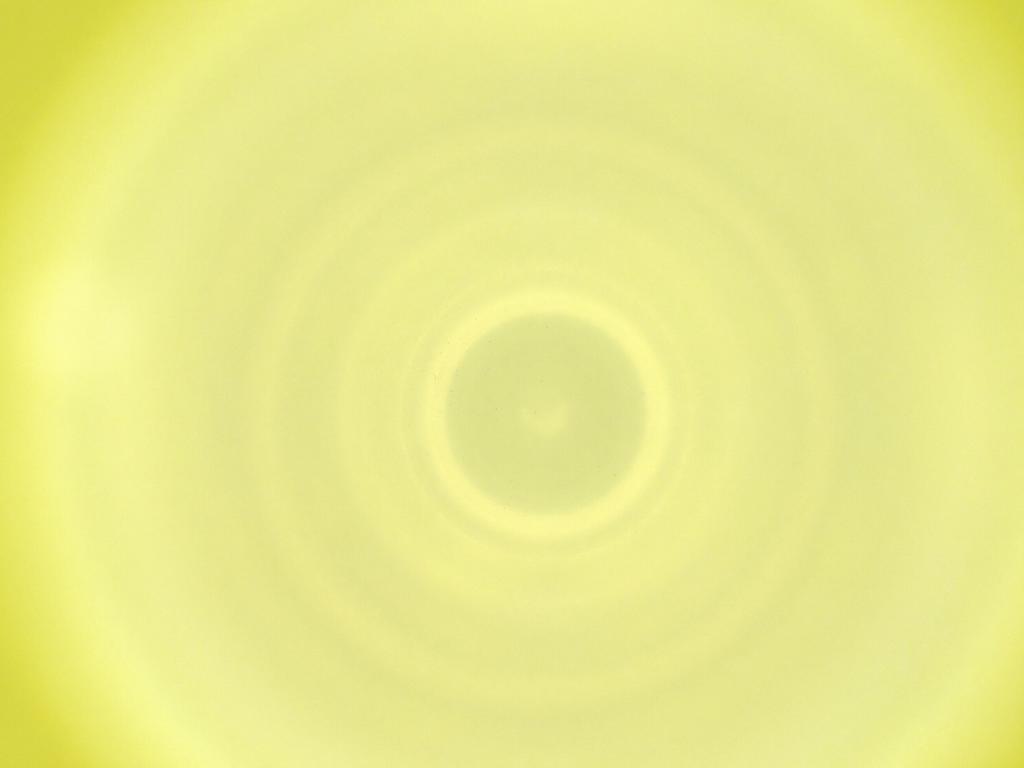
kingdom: Animalia
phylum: Arthropoda
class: Insecta
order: Diptera
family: Cecidomyiidae
